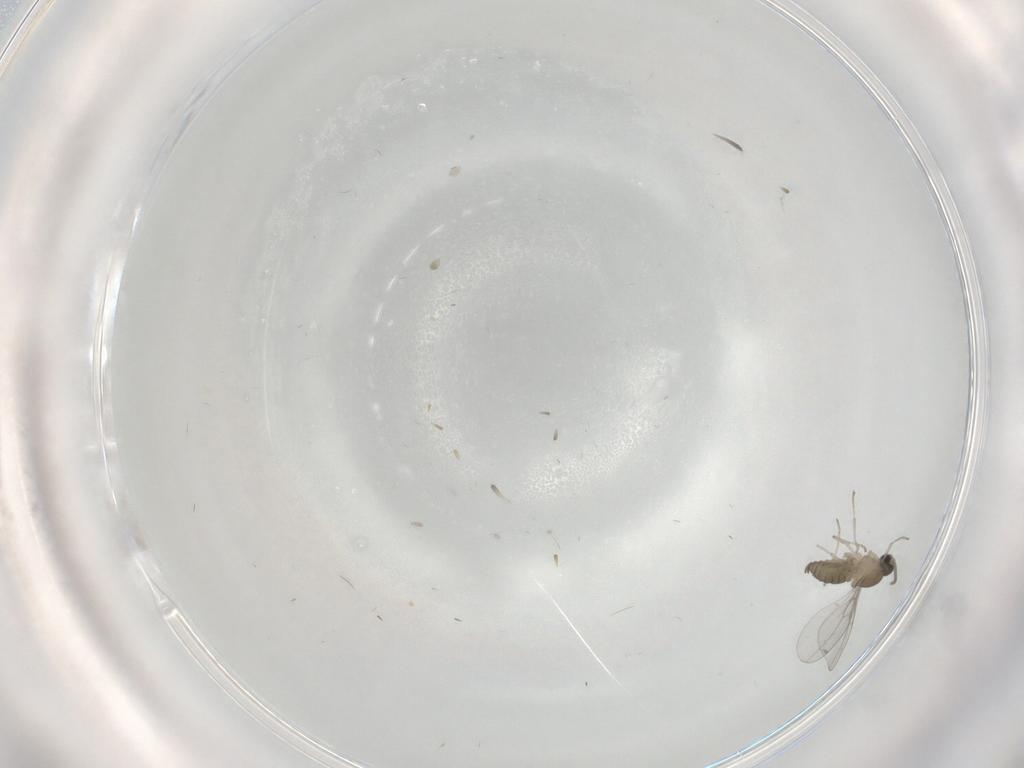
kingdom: Animalia
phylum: Arthropoda
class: Insecta
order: Diptera
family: Cecidomyiidae
